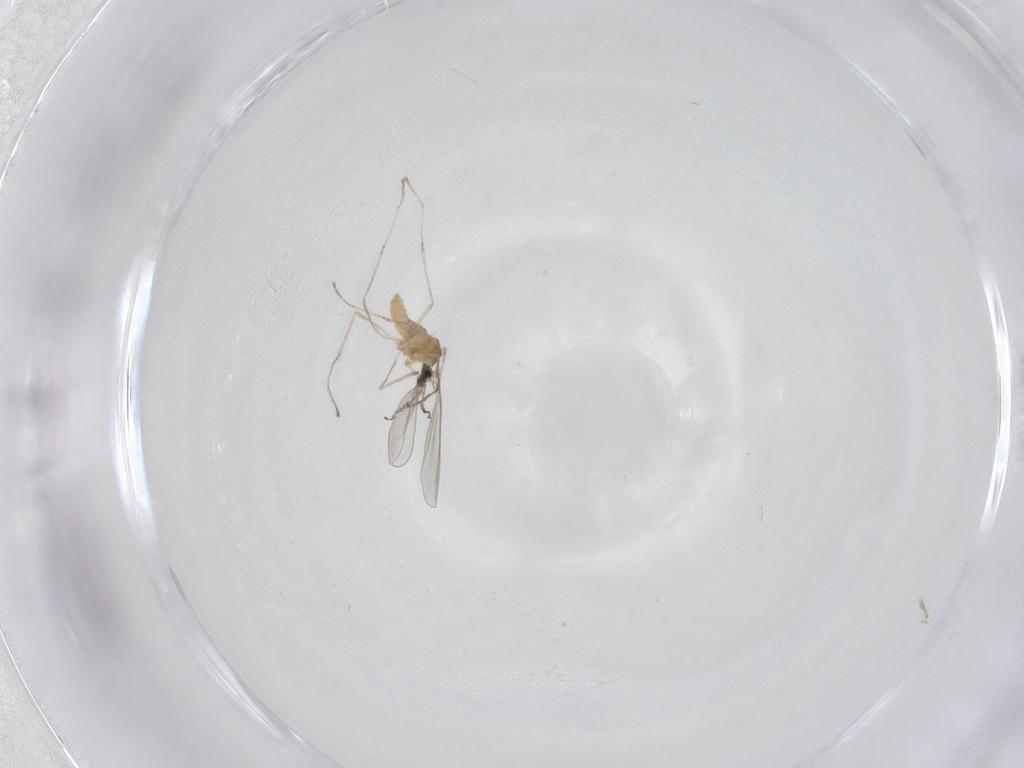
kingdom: Animalia
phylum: Arthropoda
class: Insecta
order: Diptera
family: Cecidomyiidae
